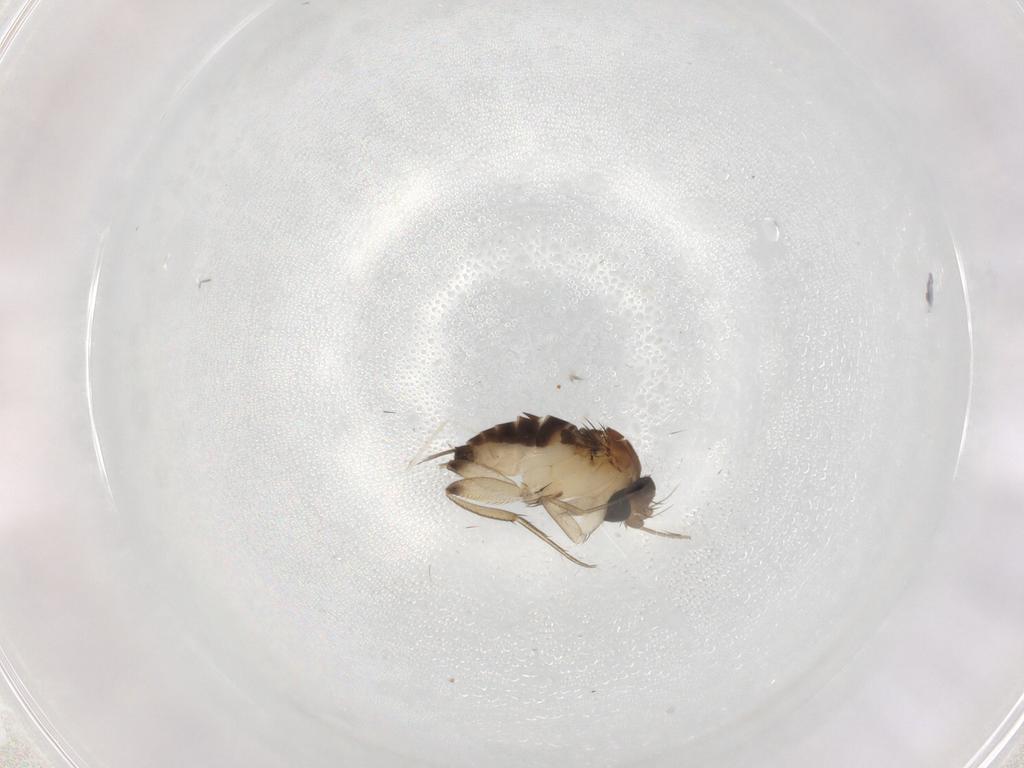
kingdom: Animalia
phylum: Arthropoda
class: Insecta
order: Diptera
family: Phoridae
